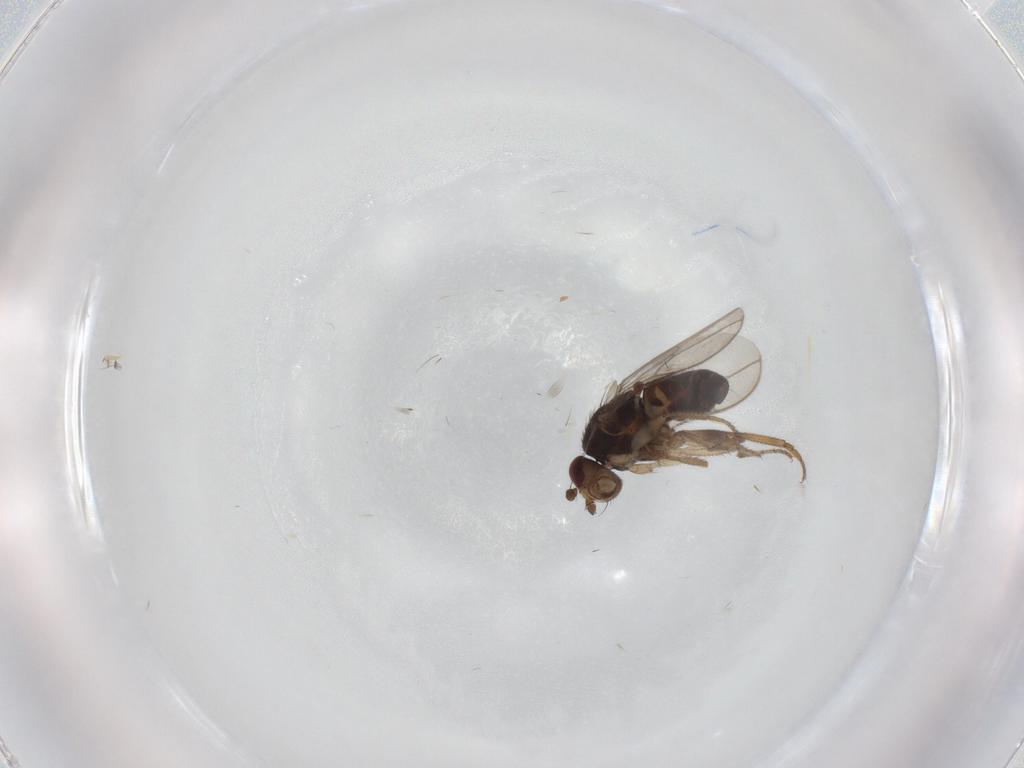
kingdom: Animalia
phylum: Arthropoda
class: Insecta
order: Diptera
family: Sphaeroceridae
